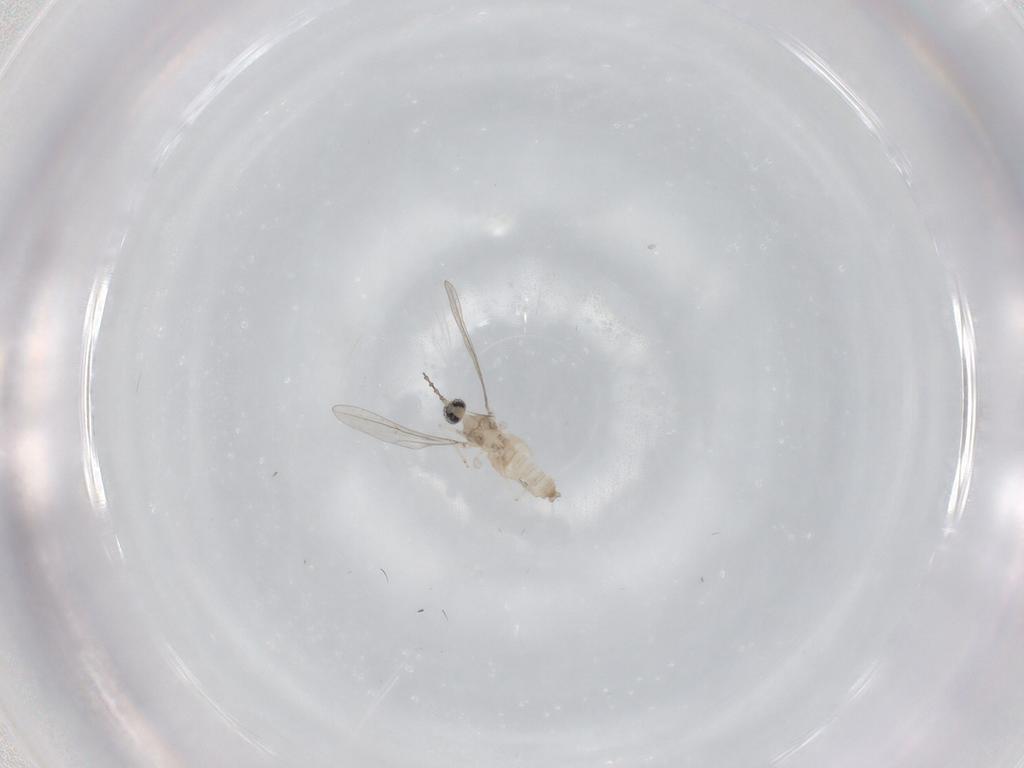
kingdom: Animalia
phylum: Arthropoda
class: Insecta
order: Diptera
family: Cecidomyiidae
